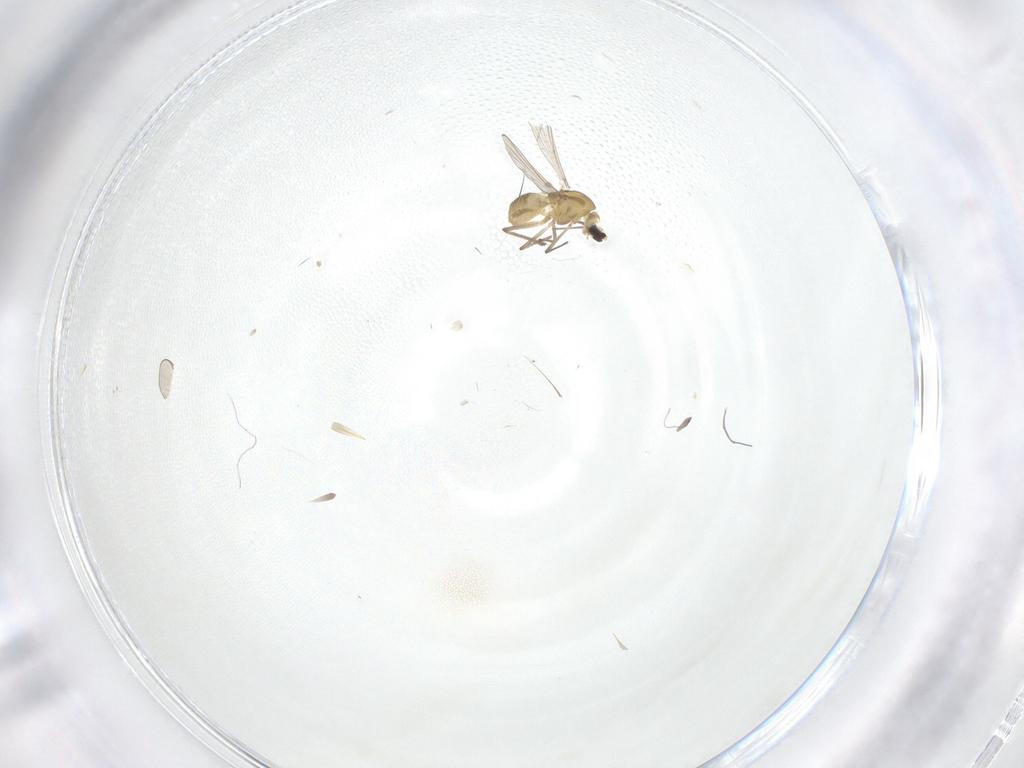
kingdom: Animalia
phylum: Arthropoda
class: Insecta
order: Diptera
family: Chironomidae
